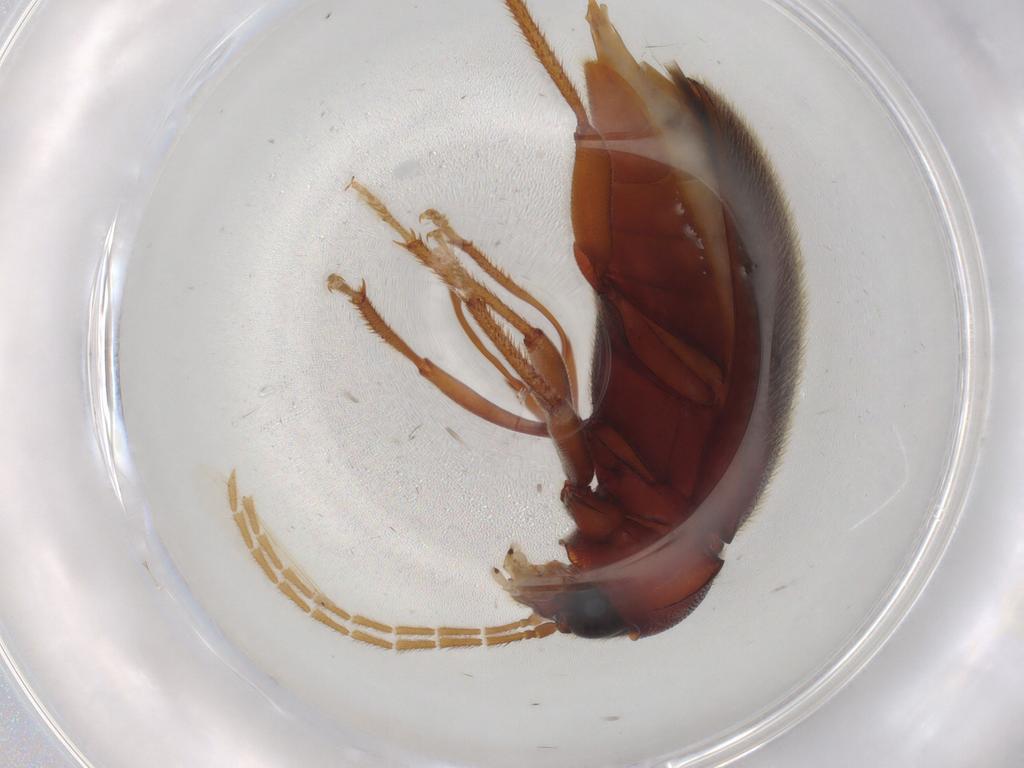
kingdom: Animalia
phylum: Arthropoda
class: Insecta
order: Coleoptera
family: Ptilodactylidae
